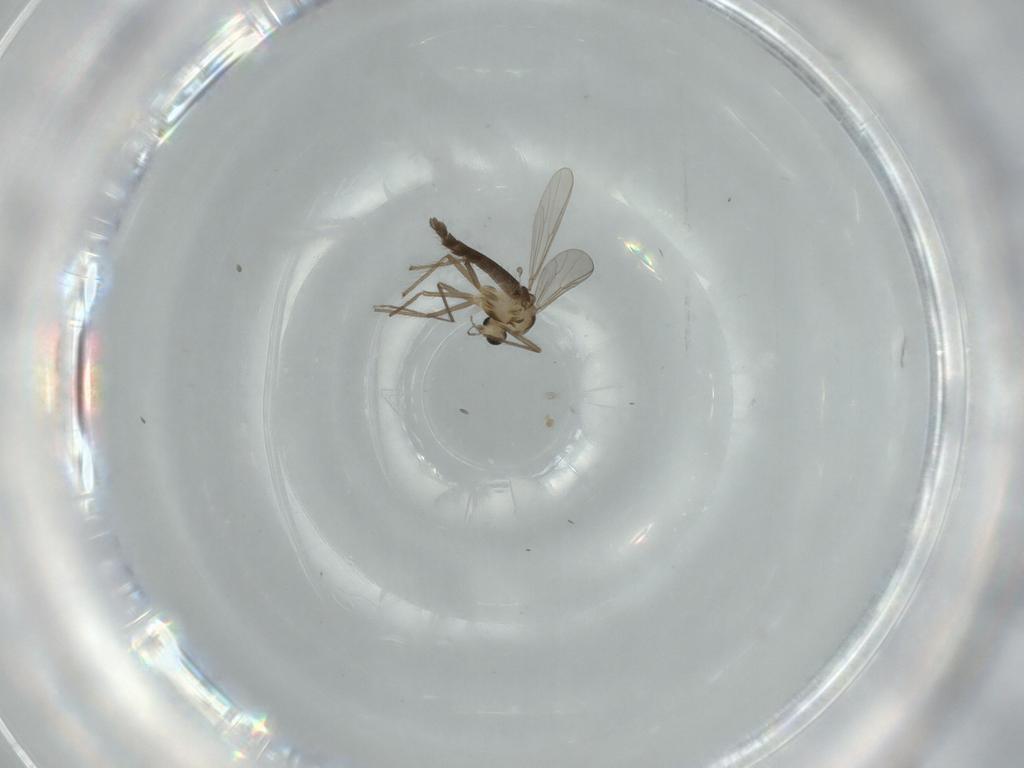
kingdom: Animalia
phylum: Arthropoda
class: Insecta
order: Diptera
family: Chironomidae
